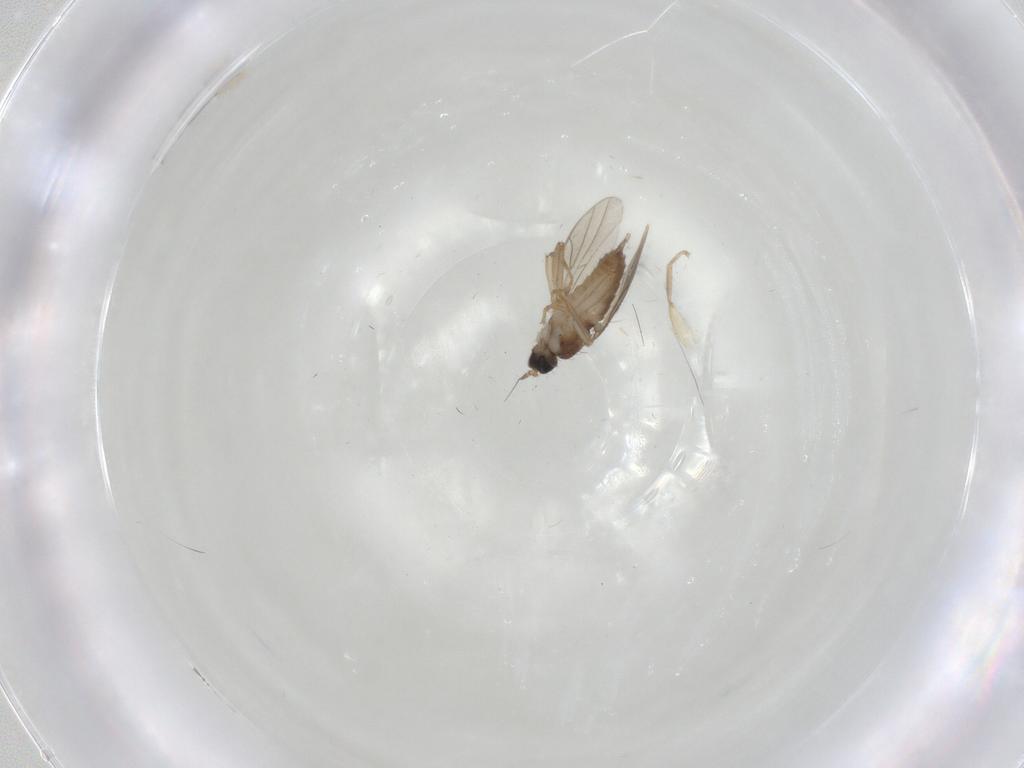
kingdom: Animalia
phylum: Arthropoda
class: Insecta
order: Diptera
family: Hybotidae
